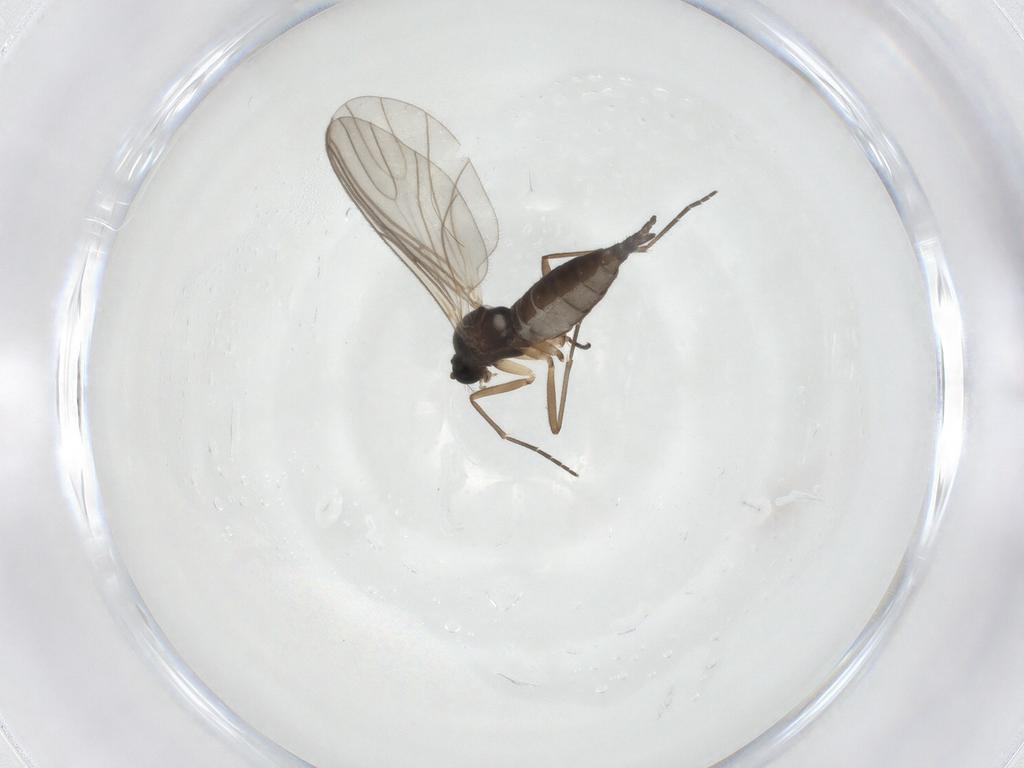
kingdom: Animalia
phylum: Arthropoda
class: Insecta
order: Diptera
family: Sciaridae
